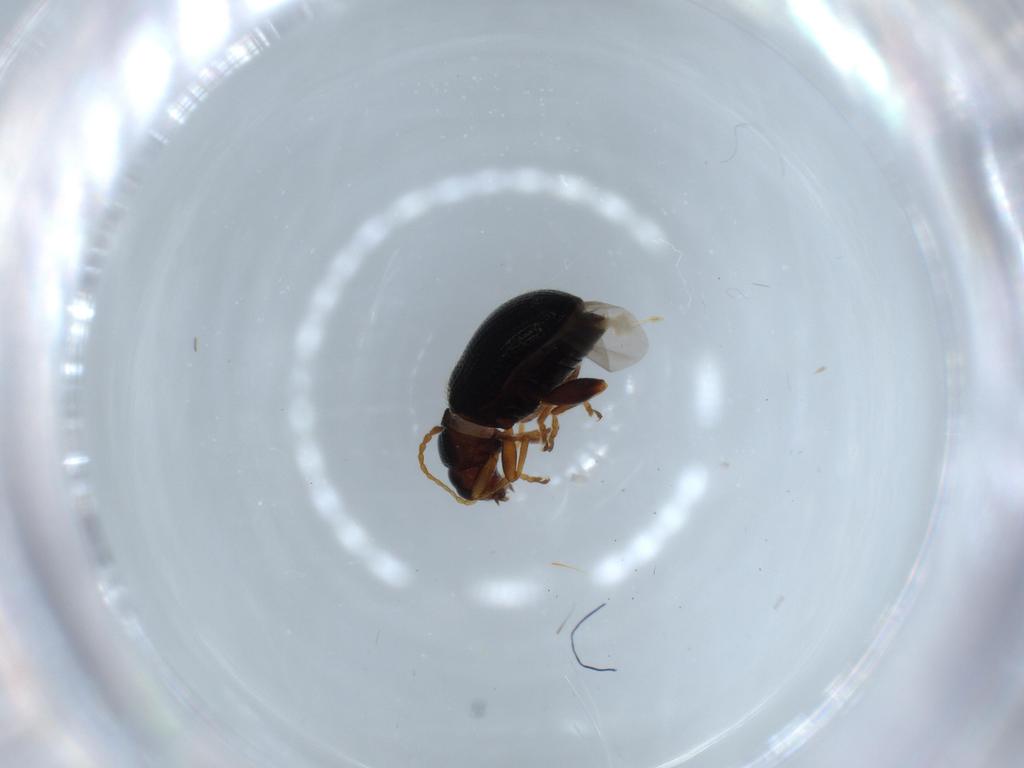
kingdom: Animalia
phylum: Arthropoda
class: Insecta
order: Coleoptera
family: Chrysomelidae
